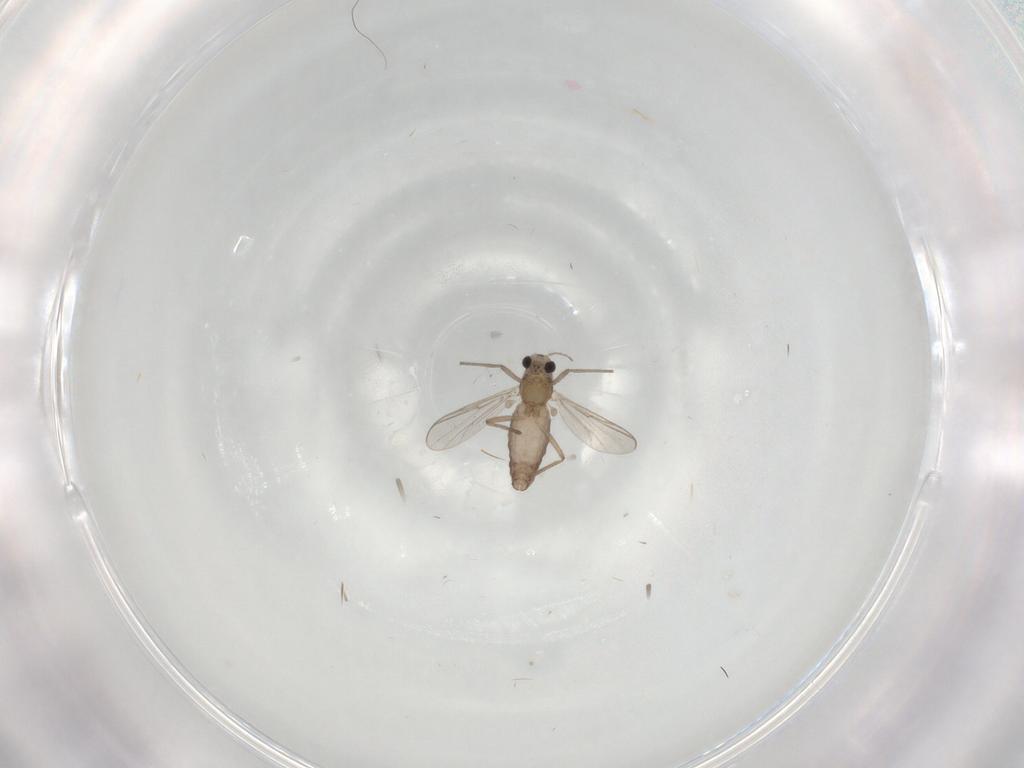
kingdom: Animalia
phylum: Arthropoda
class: Insecta
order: Diptera
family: Chironomidae
